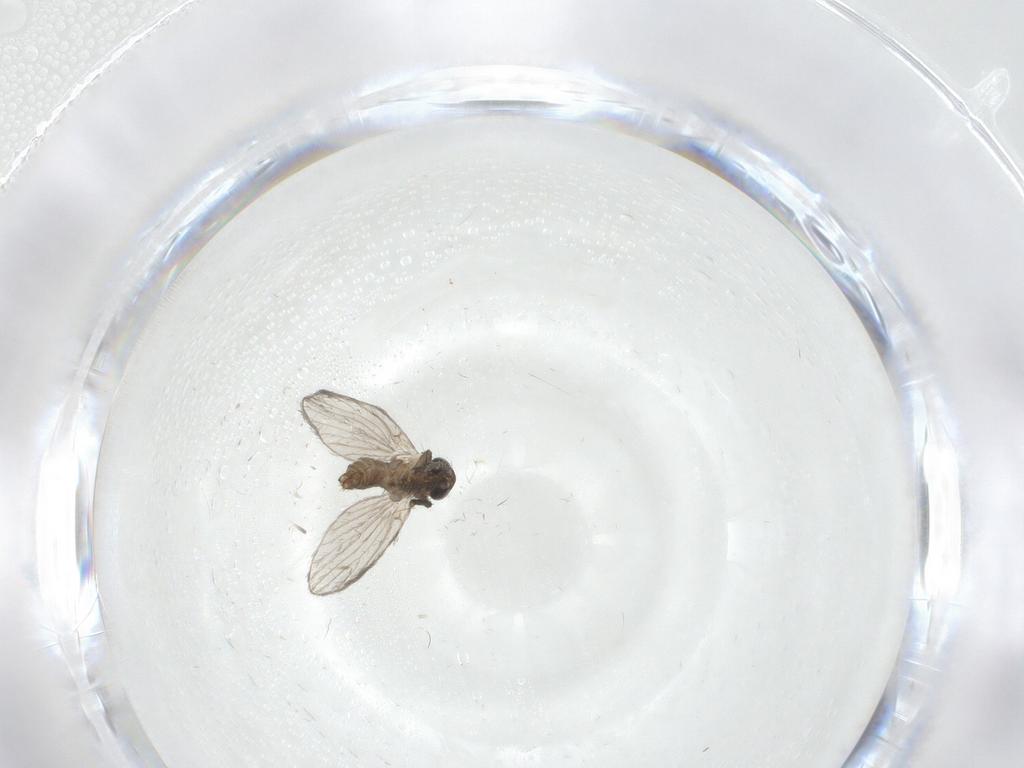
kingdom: Animalia
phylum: Arthropoda
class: Insecta
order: Diptera
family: Chironomidae
